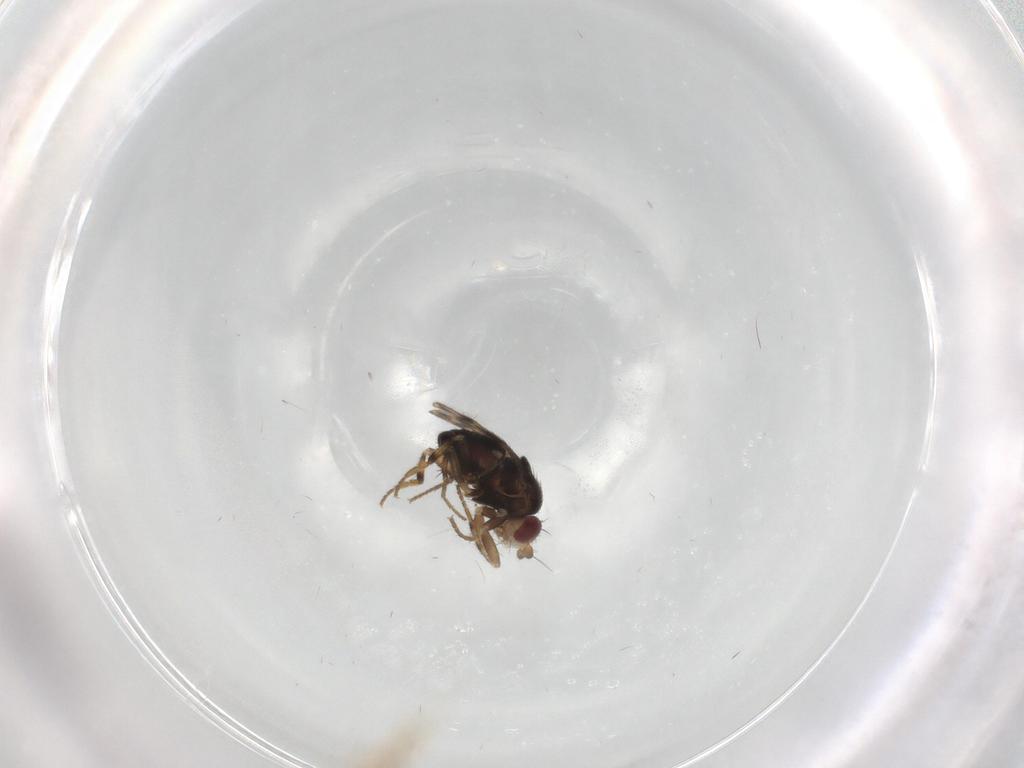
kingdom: Animalia
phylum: Arthropoda
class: Insecta
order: Diptera
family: Sphaeroceridae
